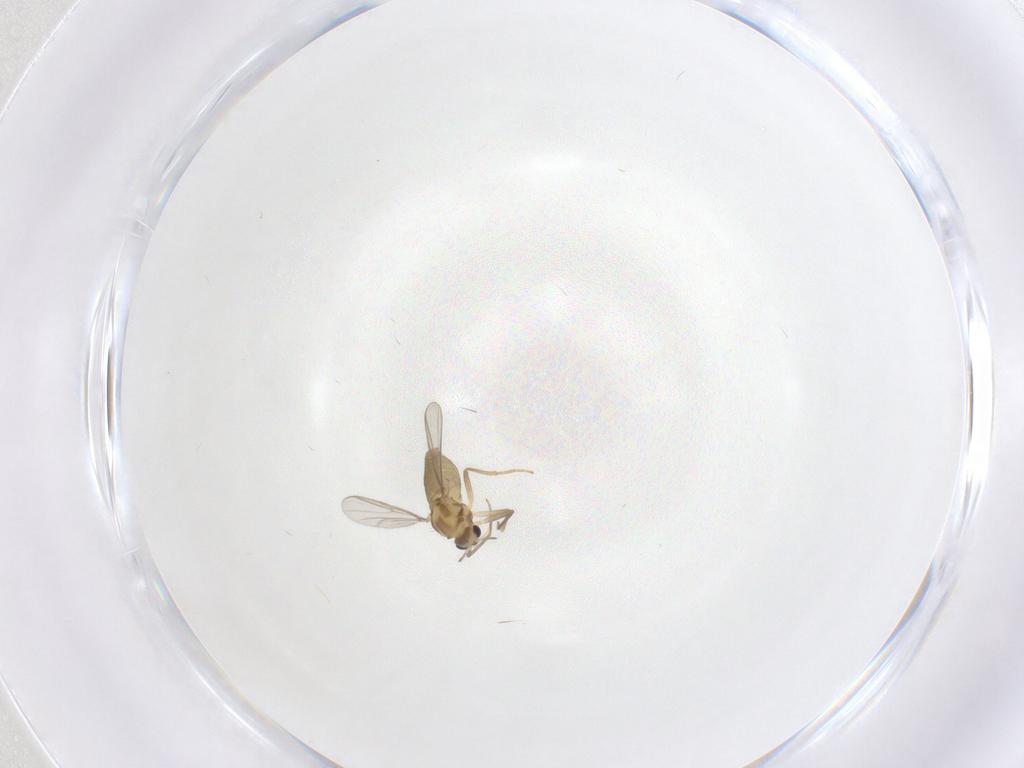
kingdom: Animalia
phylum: Arthropoda
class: Insecta
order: Diptera
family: Chironomidae
